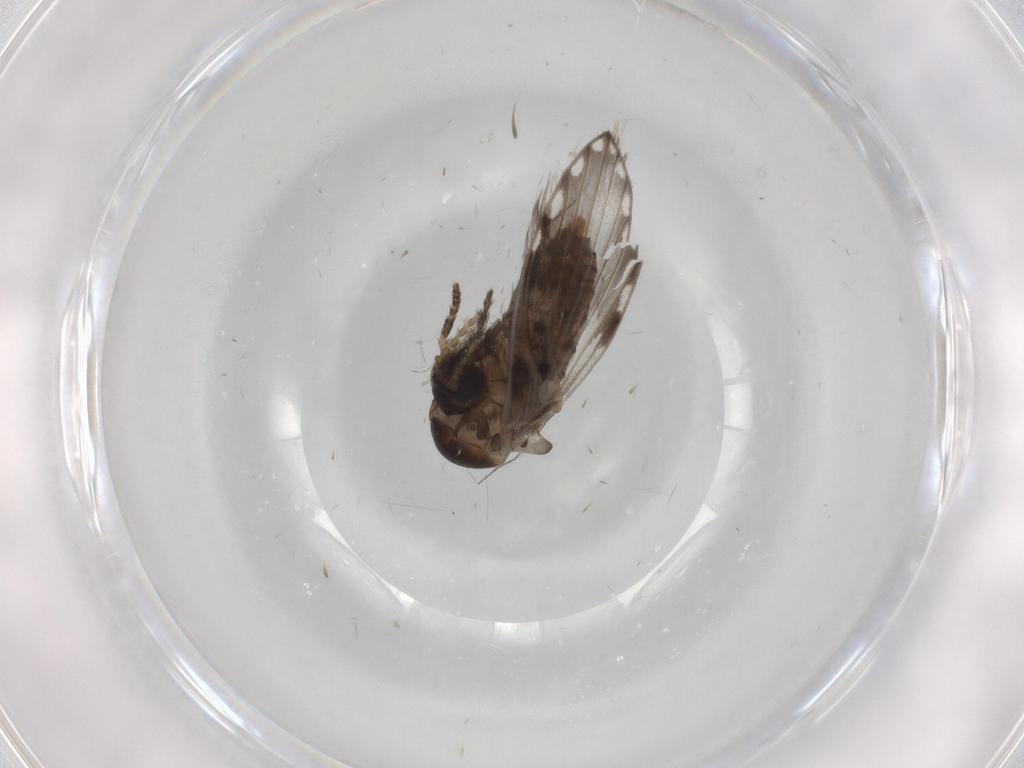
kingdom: Animalia
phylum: Arthropoda
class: Insecta
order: Diptera
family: Psychodidae
